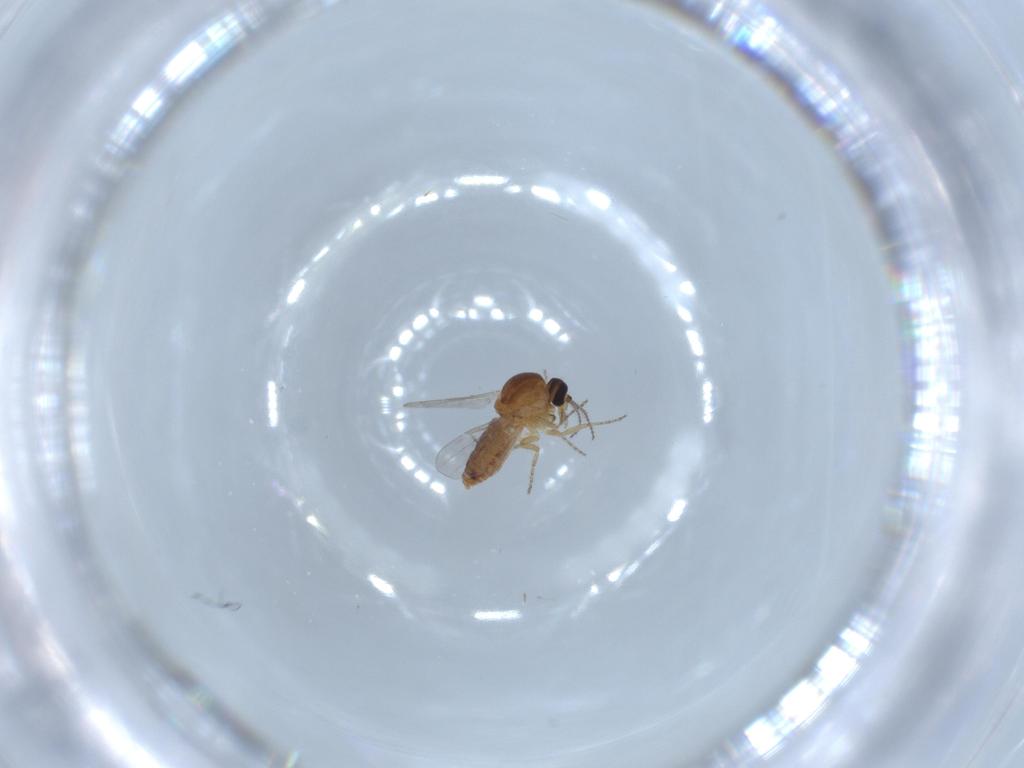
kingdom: Animalia
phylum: Arthropoda
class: Insecta
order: Diptera
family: Ceratopogonidae
